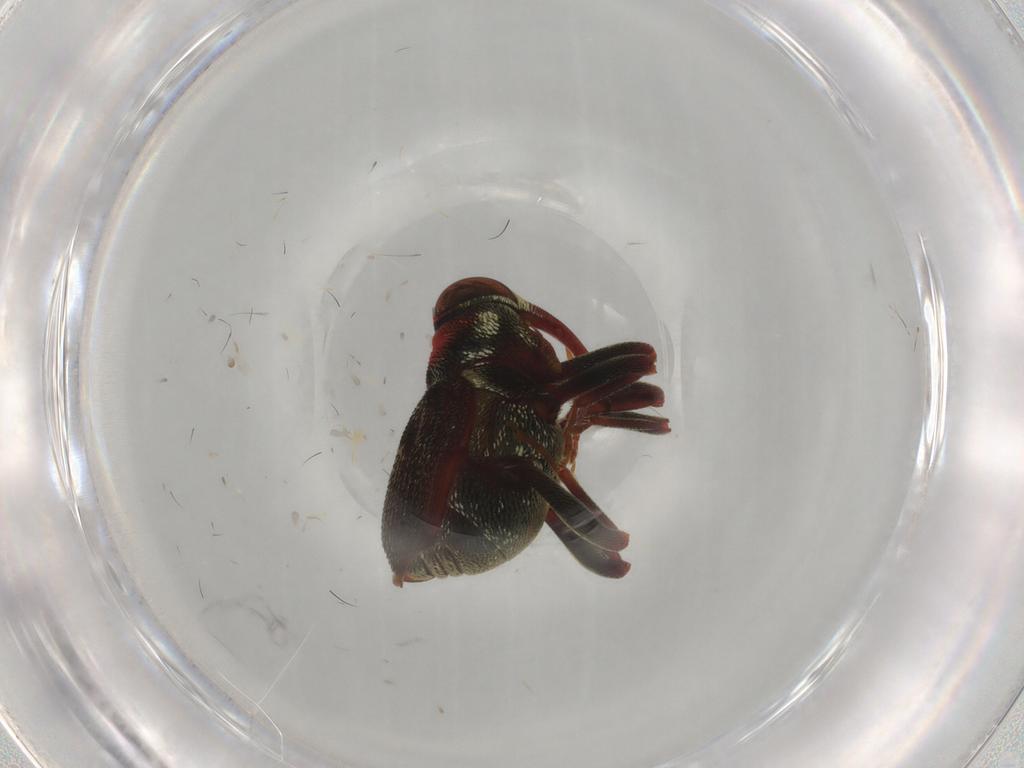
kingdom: Animalia
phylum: Arthropoda
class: Insecta
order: Coleoptera
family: Curculionidae
